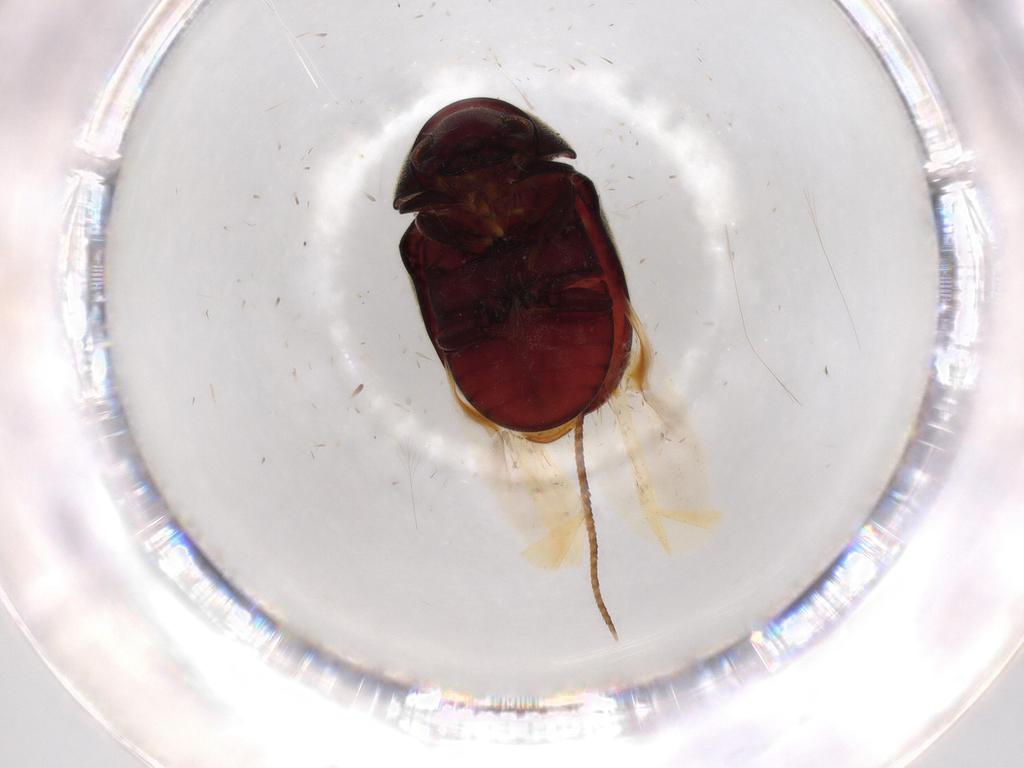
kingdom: Animalia
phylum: Arthropoda
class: Insecta
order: Coleoptera
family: Ptinidae
